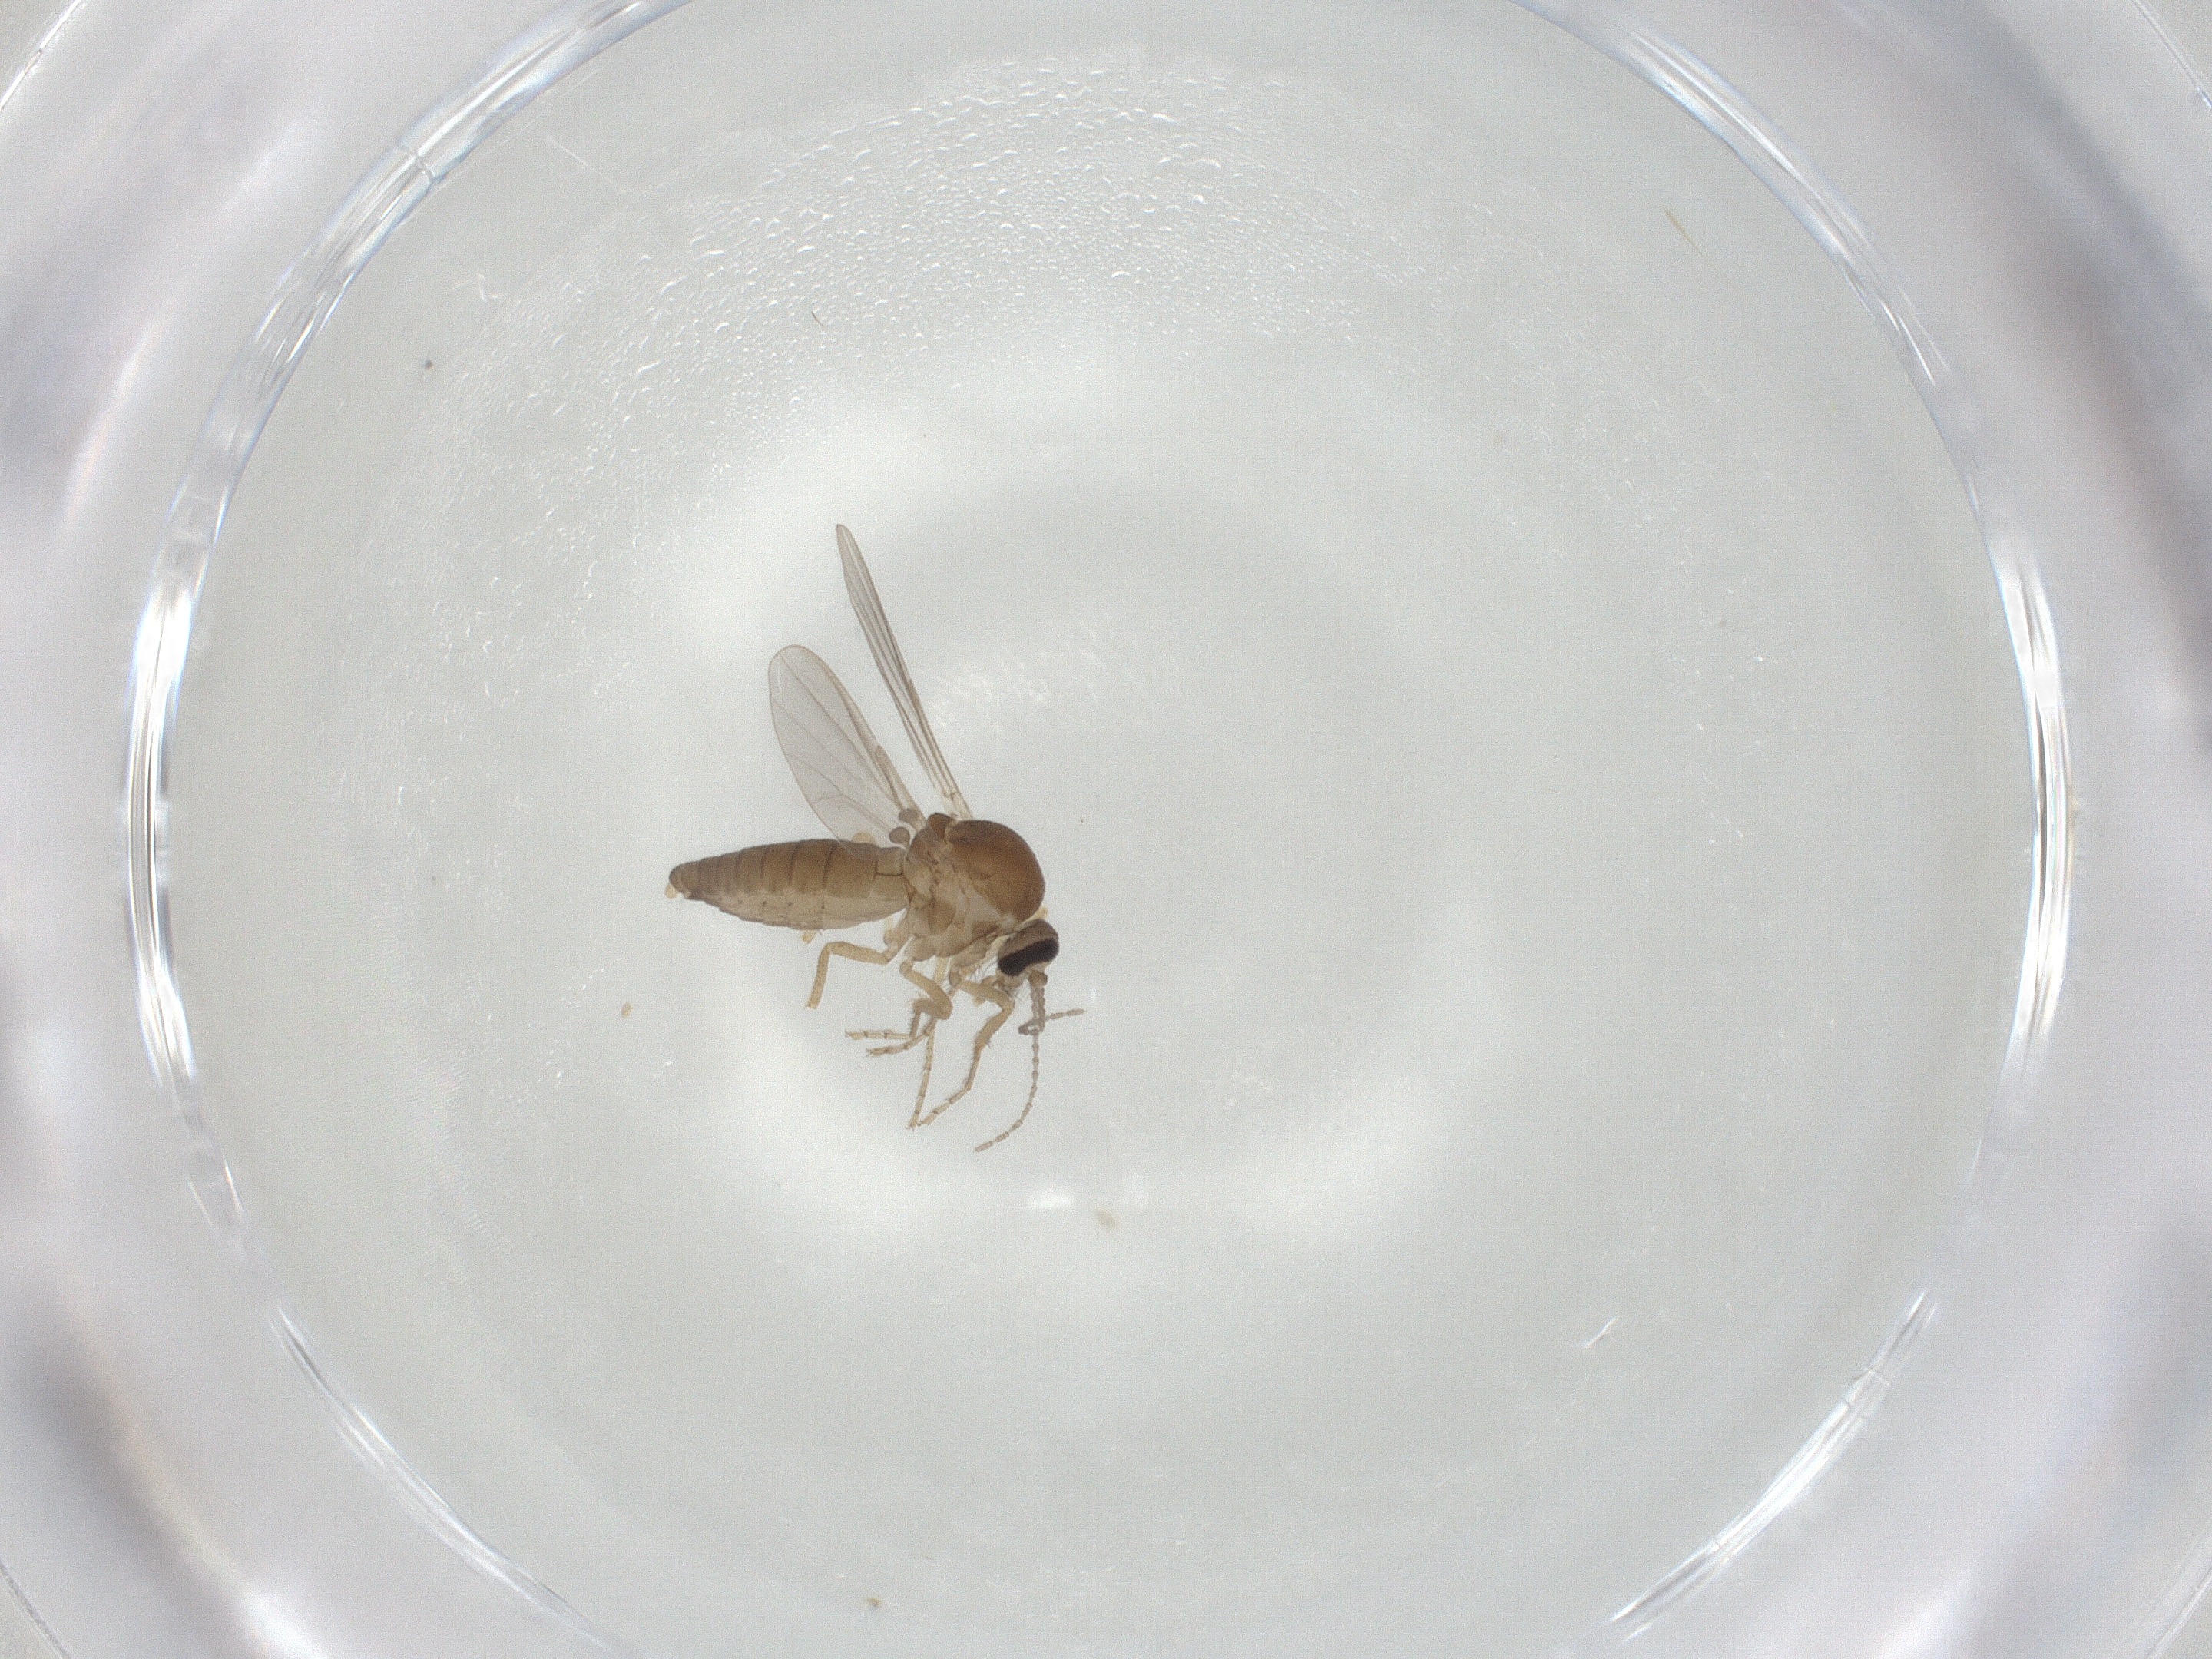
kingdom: Animalia
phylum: Arthropoda
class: Insecta
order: Diptera
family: Ceratopogonidae
